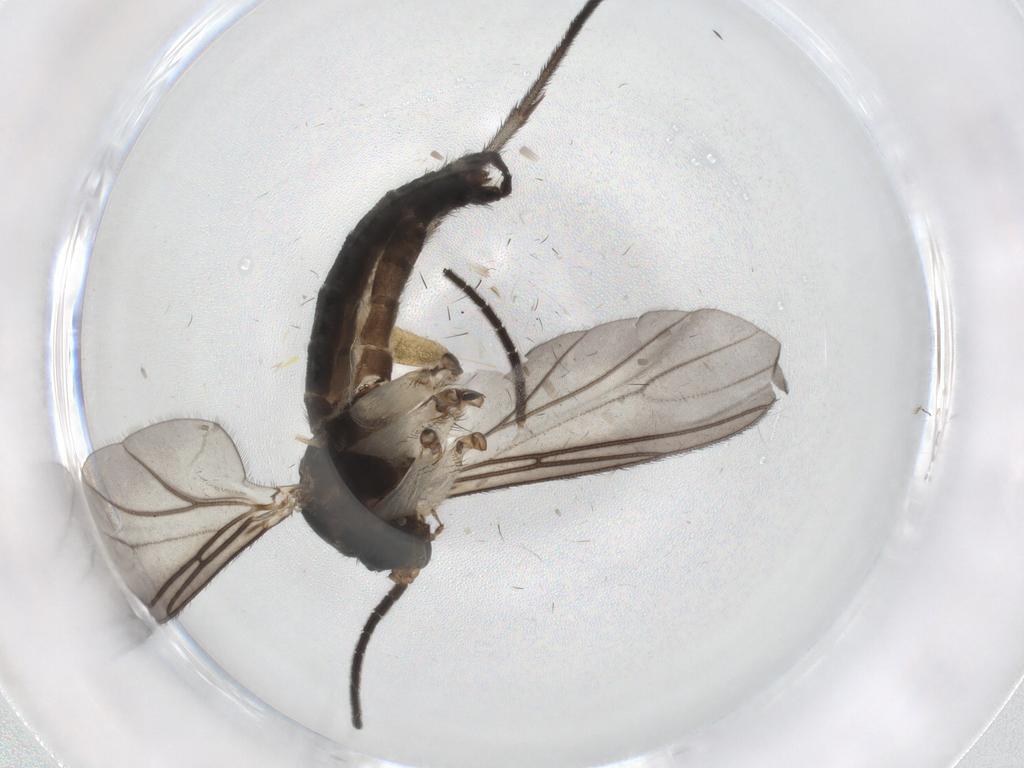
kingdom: Animalia
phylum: Arthropoda
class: Insecta
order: Diptera
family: Sciaridae
